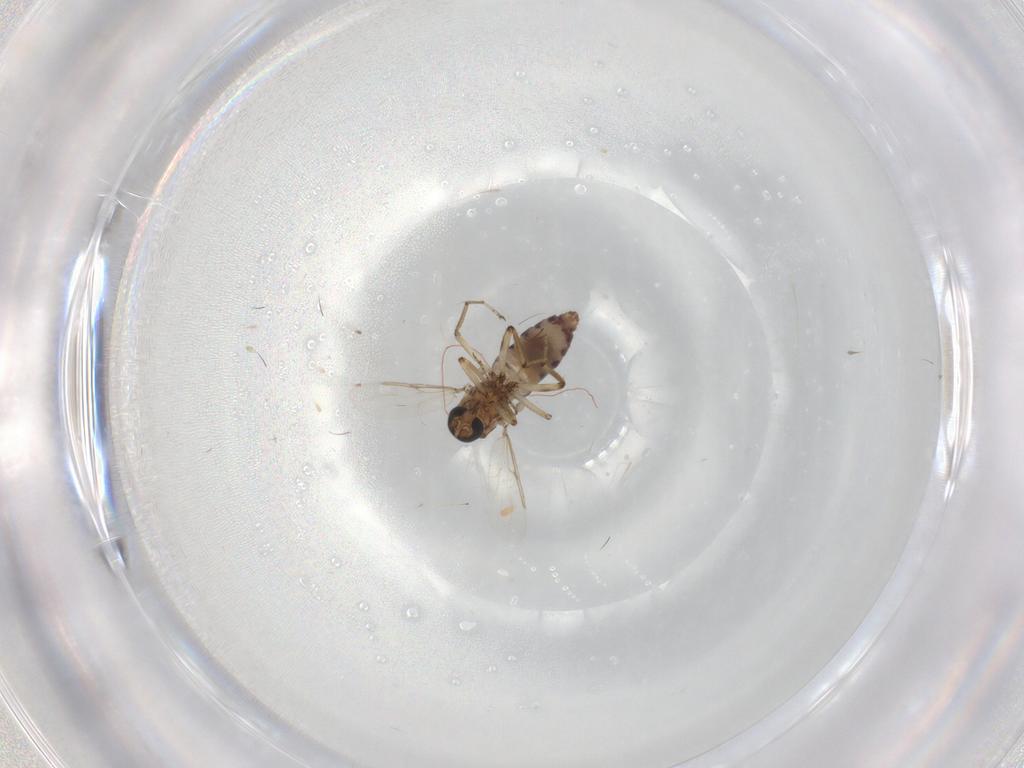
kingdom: Animalia
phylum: Arthropoda
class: Insecta
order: Diptera
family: Ceratopogonidae
